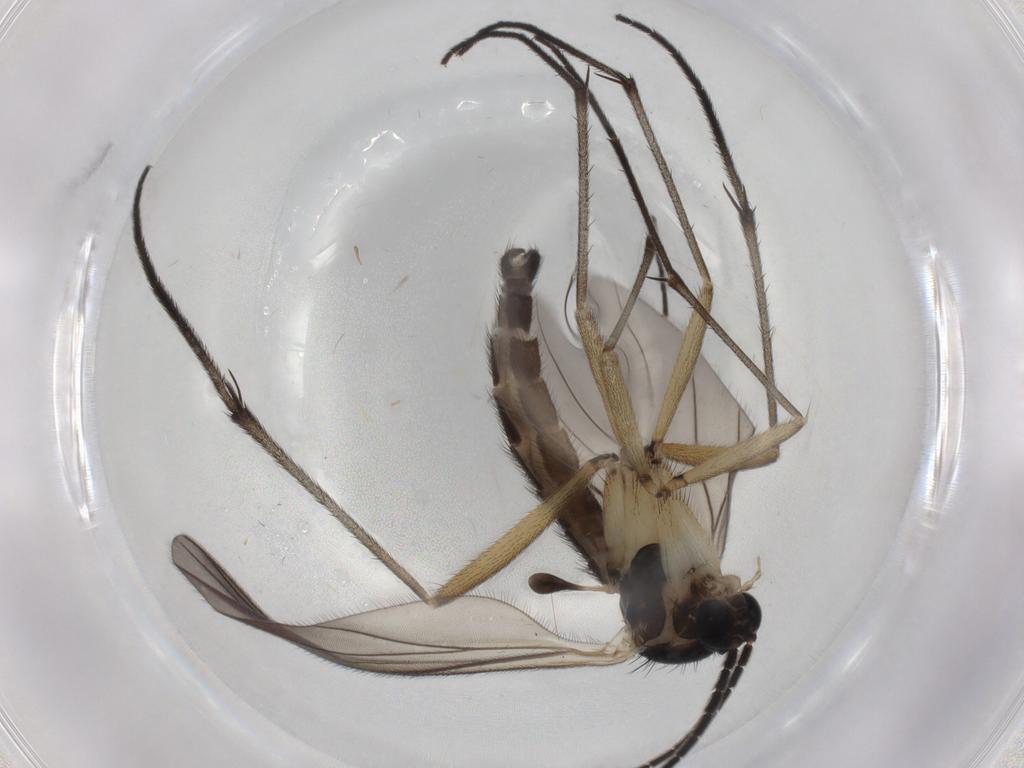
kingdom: Animalia
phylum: Arthropoda
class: Insecta
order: Diptera
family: Sciaridae
